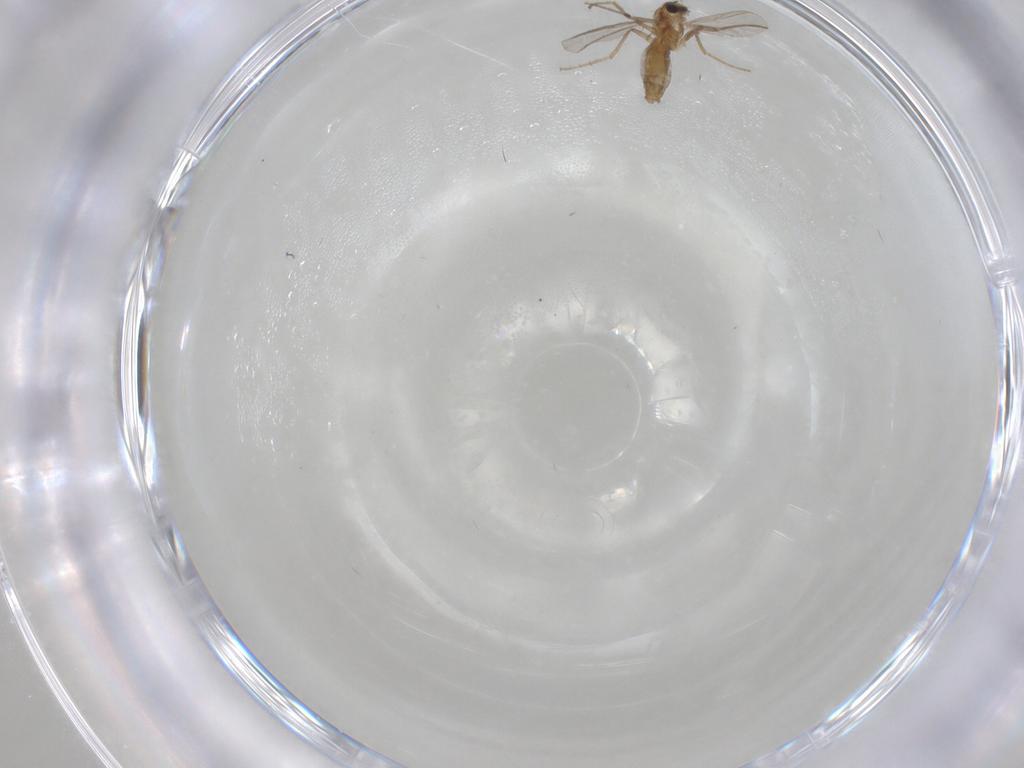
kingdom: Animalia
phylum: Arthropoda
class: Insecta
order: Diptera
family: Chironomidae
